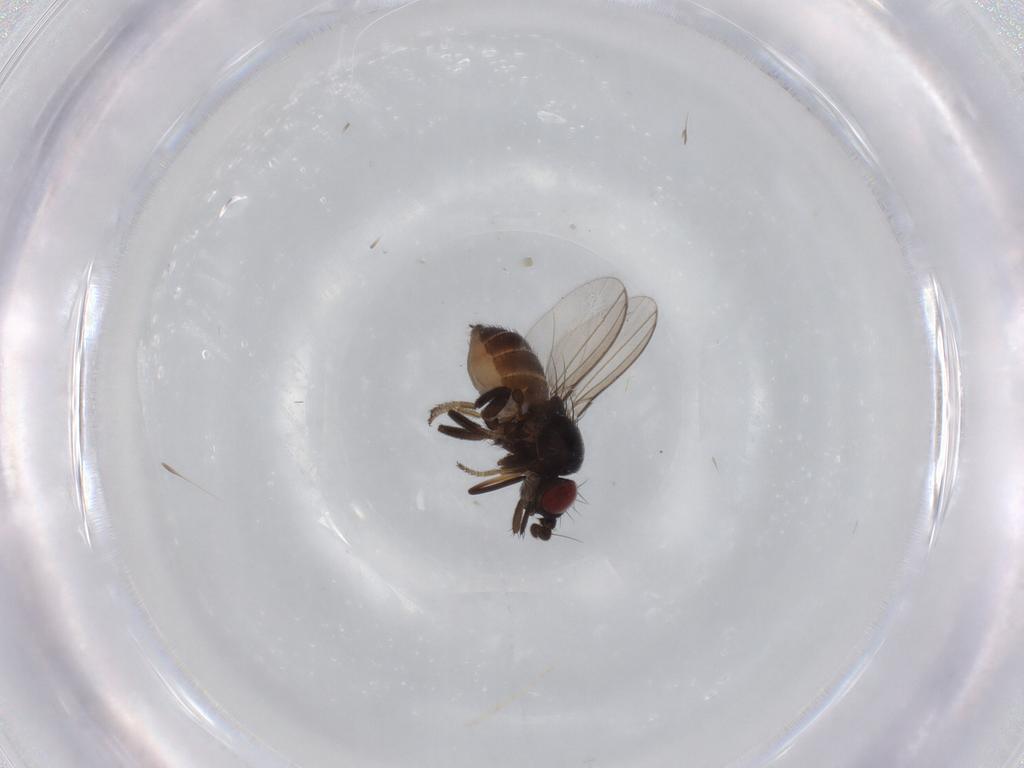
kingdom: Animalia
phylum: Arthropoda
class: Insecta
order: Diptera
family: Milichiidae
